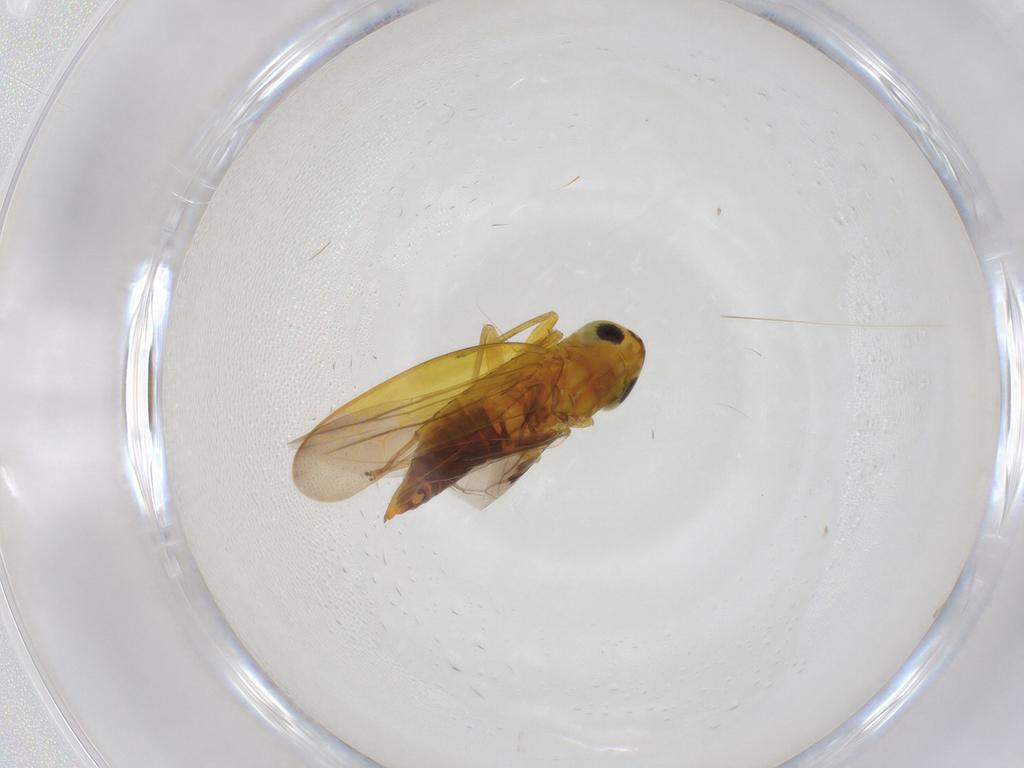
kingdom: Animalia
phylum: Arthropoda
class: Insecta
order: Hemiptera
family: Cicadellidae
